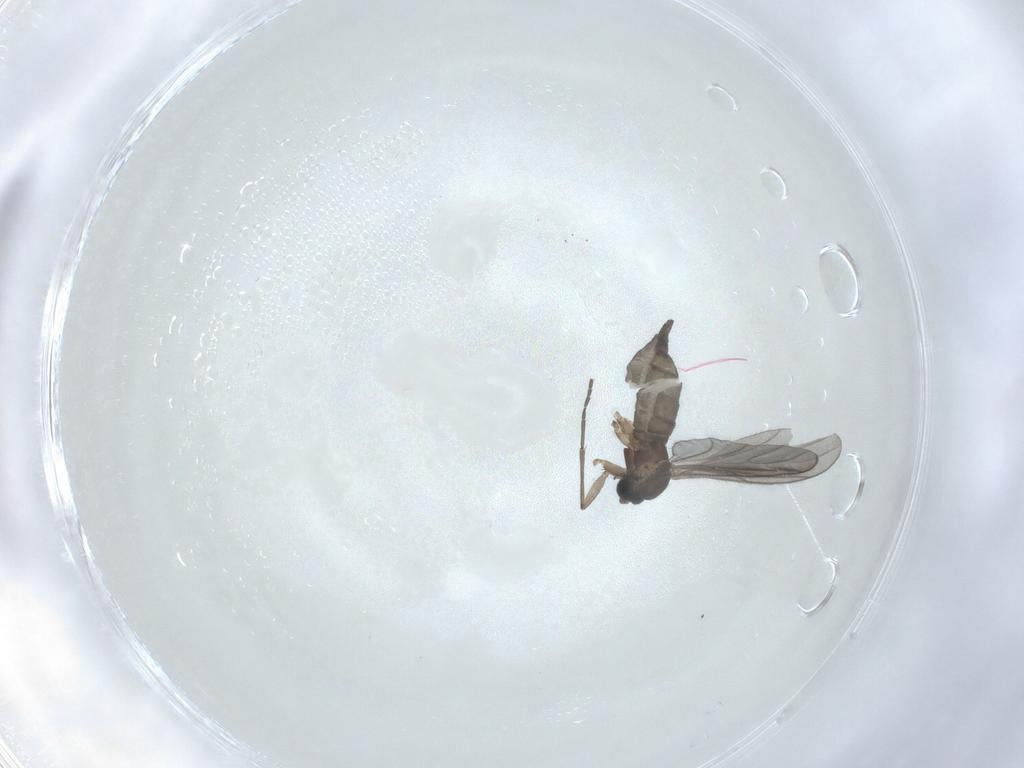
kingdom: Animalia
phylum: Arthropoda
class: Insecta
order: Diptera
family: Sciaridae
